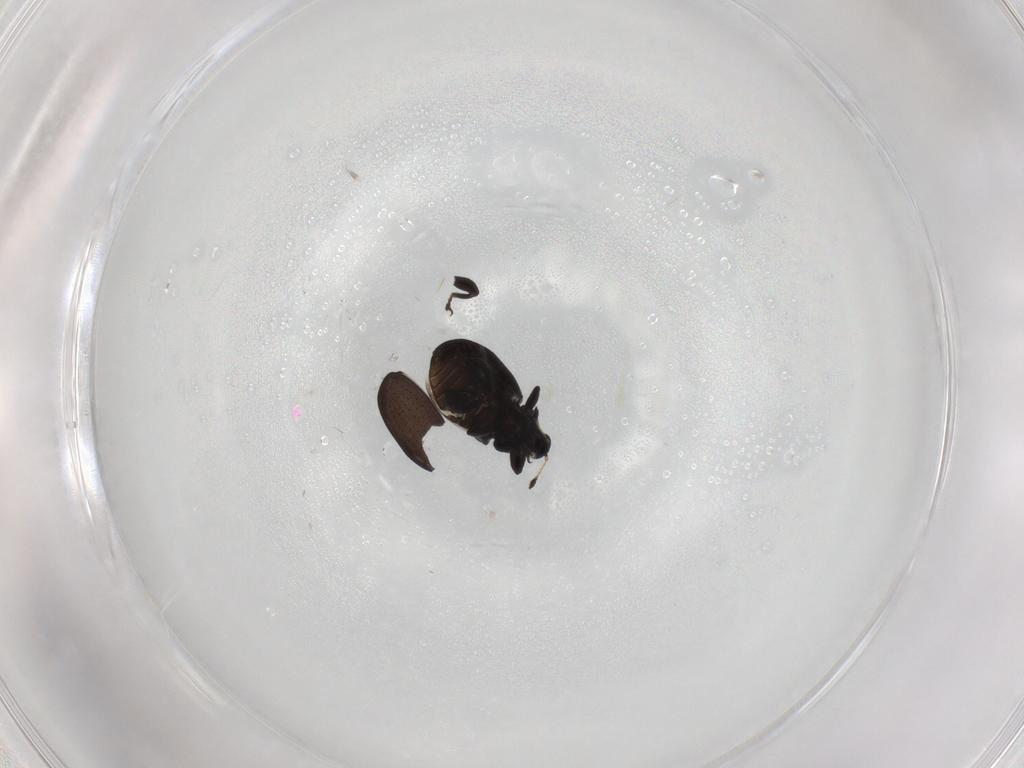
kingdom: Animalia
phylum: Arthropoda
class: Insecta
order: Coleoptera
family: Curculionidae
